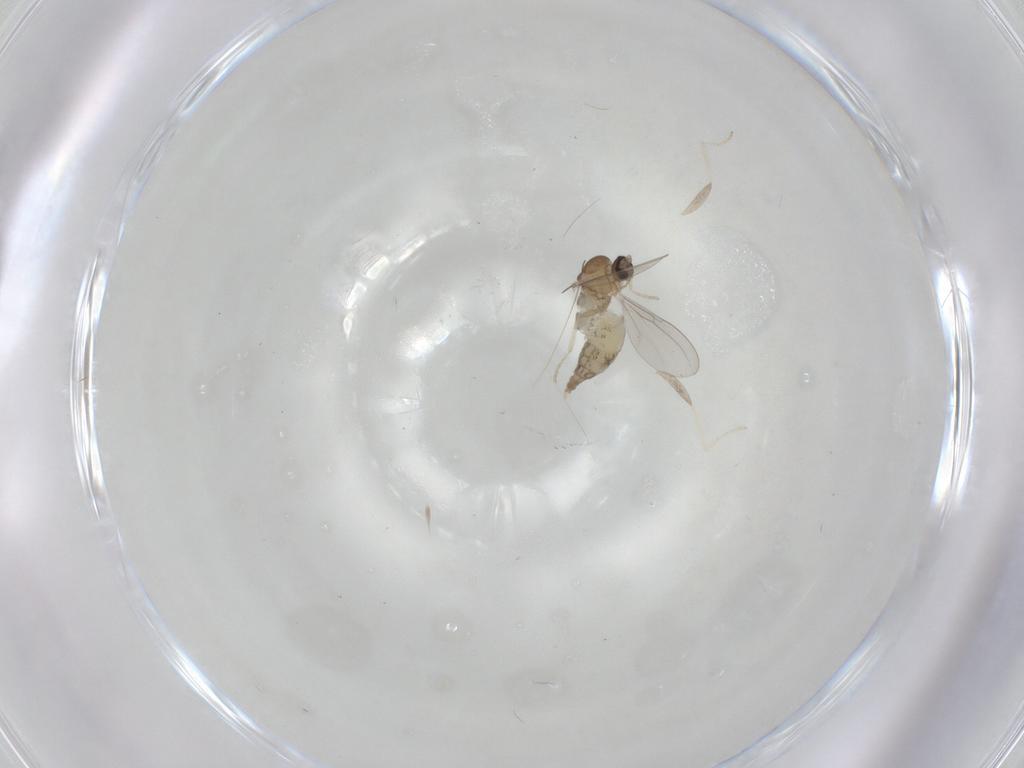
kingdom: Animalia
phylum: Arthropoda
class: Insecta
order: Diptera
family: Cecidomyiidae
